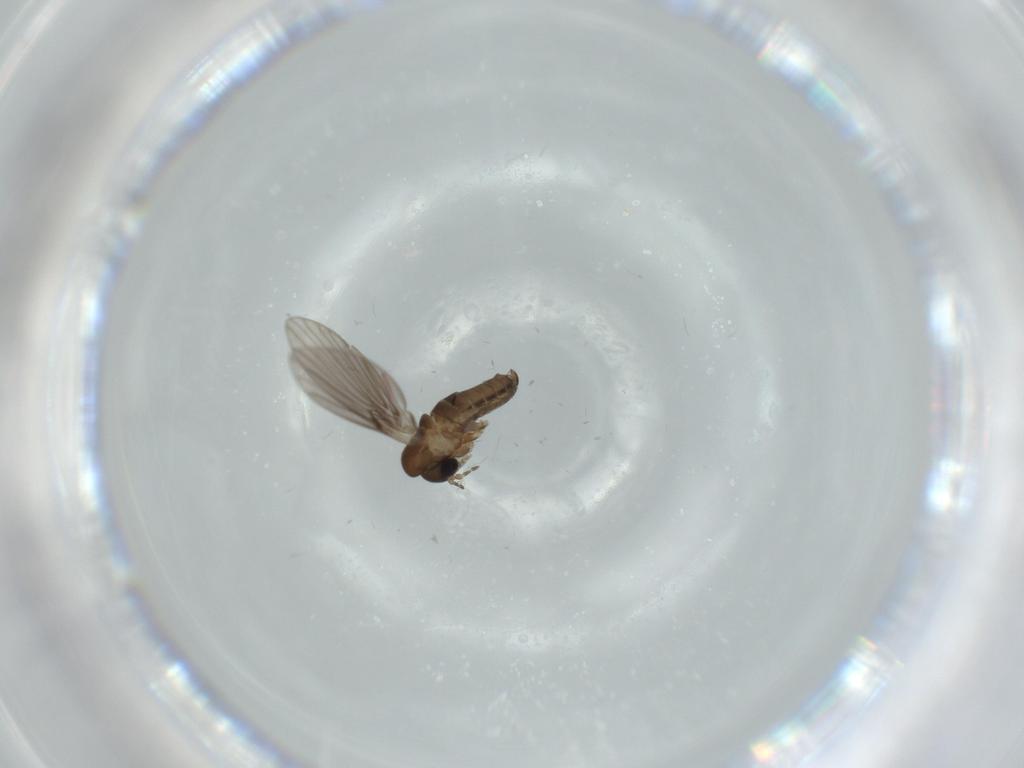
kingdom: Animalia
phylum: Arthropoda
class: Insecta
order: Diptera
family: Psychodidae
